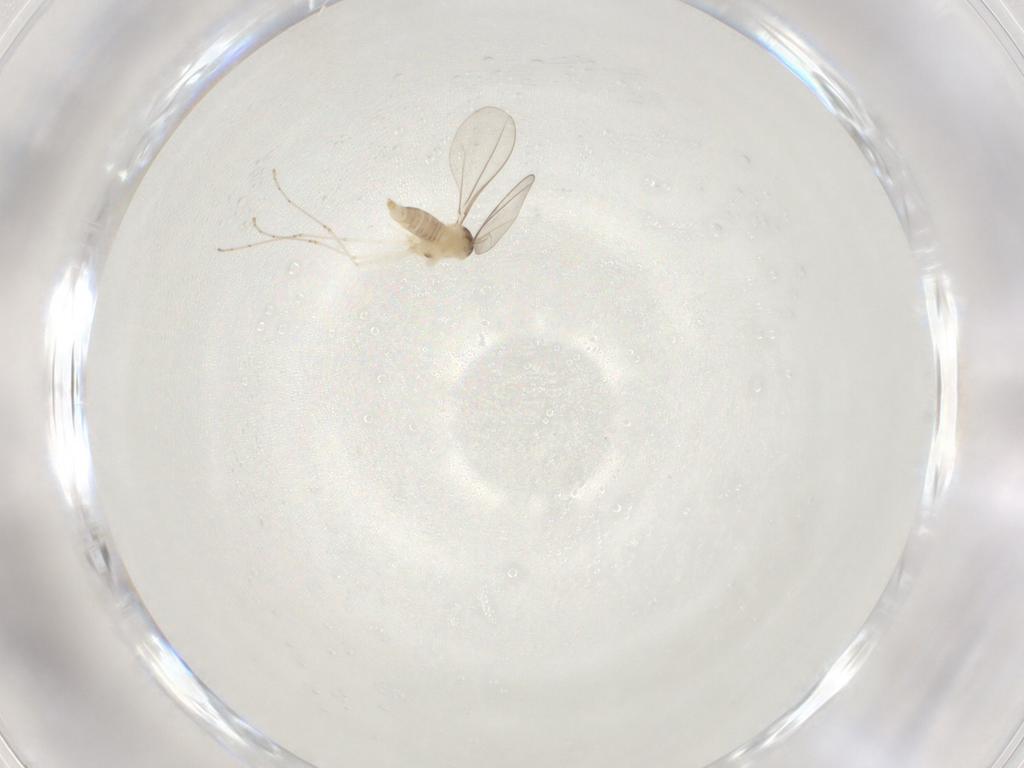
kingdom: Animalia
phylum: Arthropoda
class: Insecta
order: Diptera
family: Cecidomyiidae
